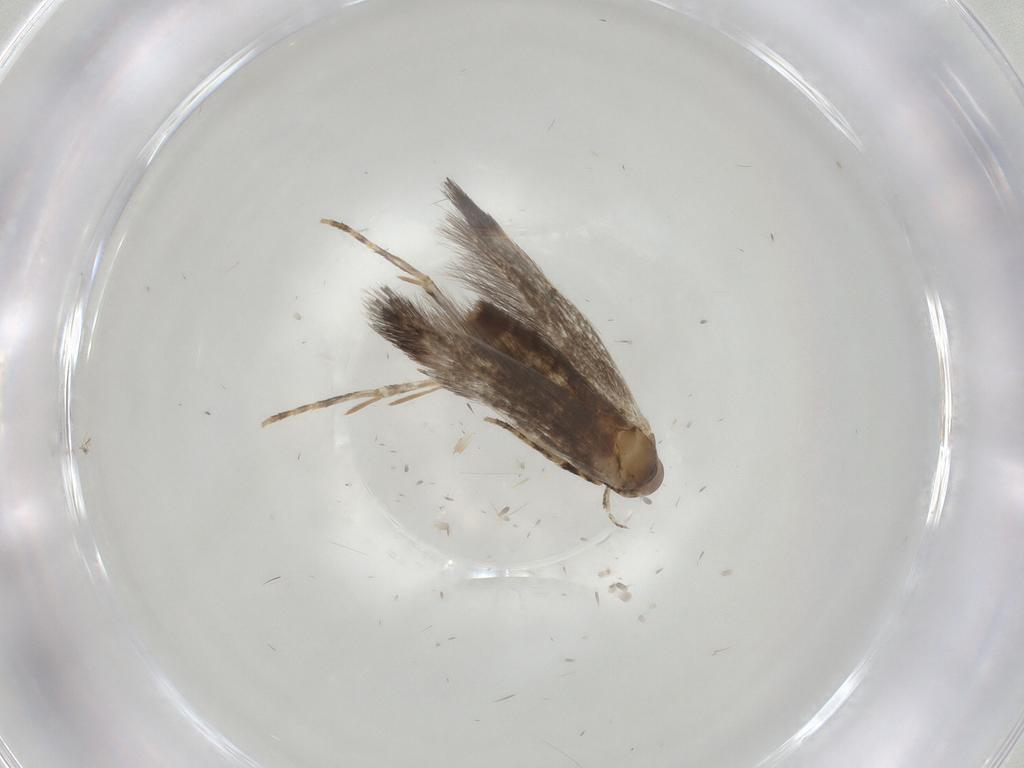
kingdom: Animalia
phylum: Arthropoda
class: Insecta
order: Lepidoptera
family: Elachistidae
